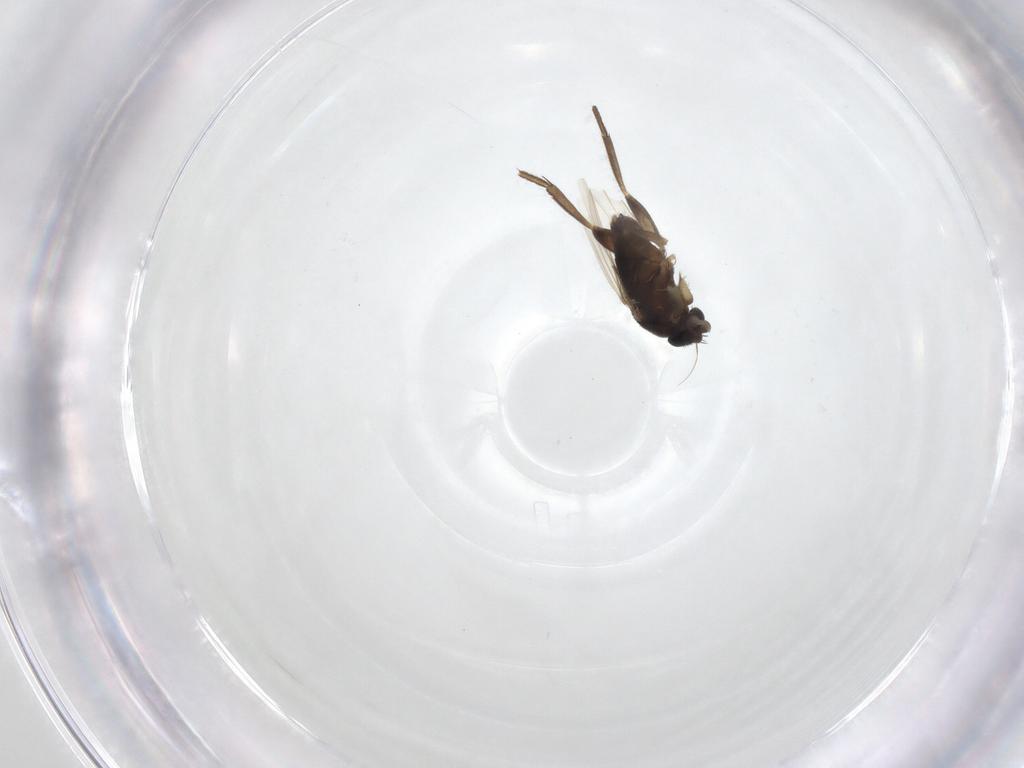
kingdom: Animalia
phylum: Arthropoda
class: Insecta
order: Diptera
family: Phoridae
